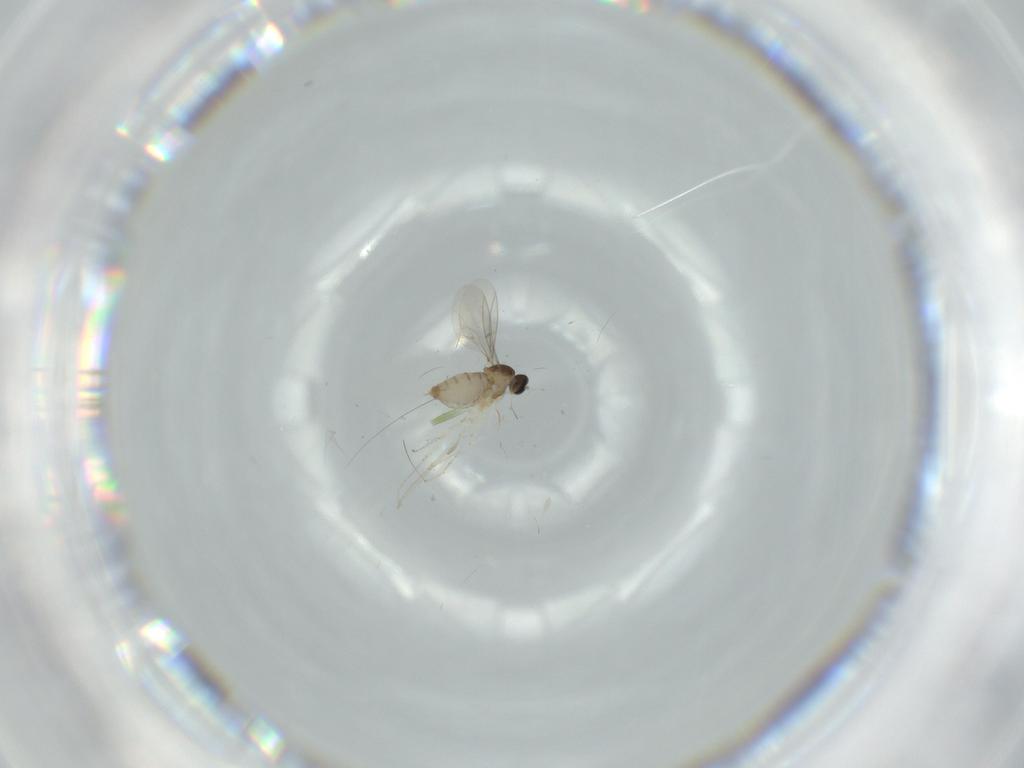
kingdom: Animalia
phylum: Arthropoda
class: Insecta
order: Diptera
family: Cecidomyiidae
